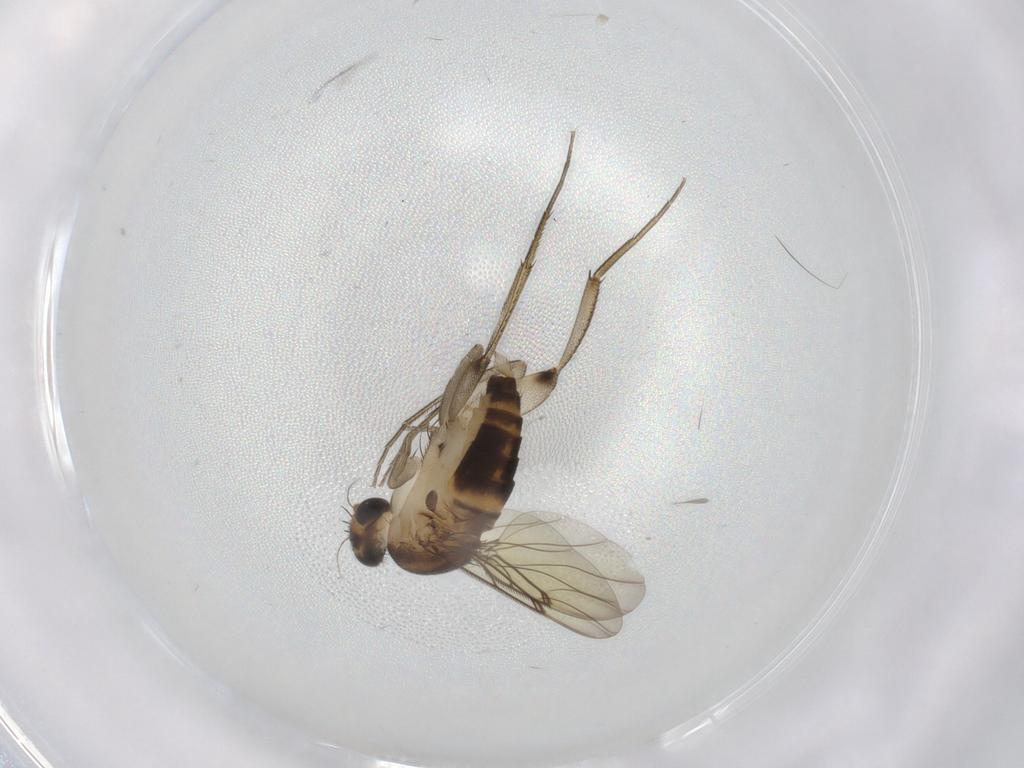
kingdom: Animalia
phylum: Arthropoda
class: Insecta
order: Diptera
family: Phoridae
